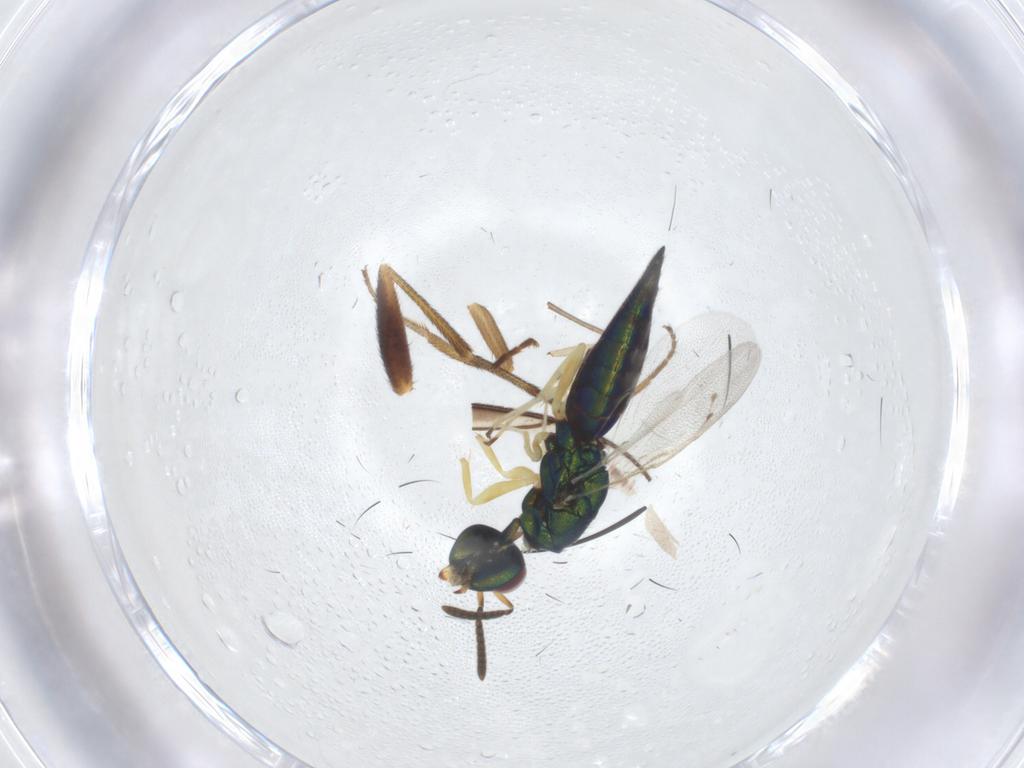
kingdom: Animalia
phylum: Arthropoda
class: Insecta
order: Hymenoptera
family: Pteromalidae
